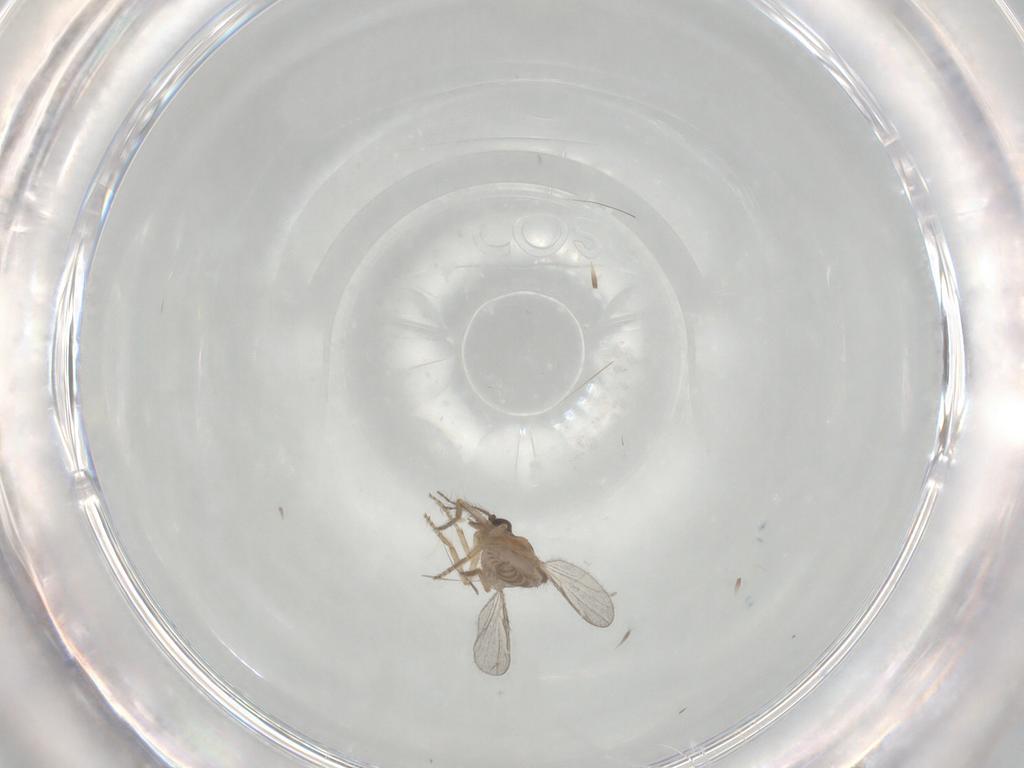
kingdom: Animalia
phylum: Arthropoda
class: Insecta
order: Diptera
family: Ceratopogonidae
